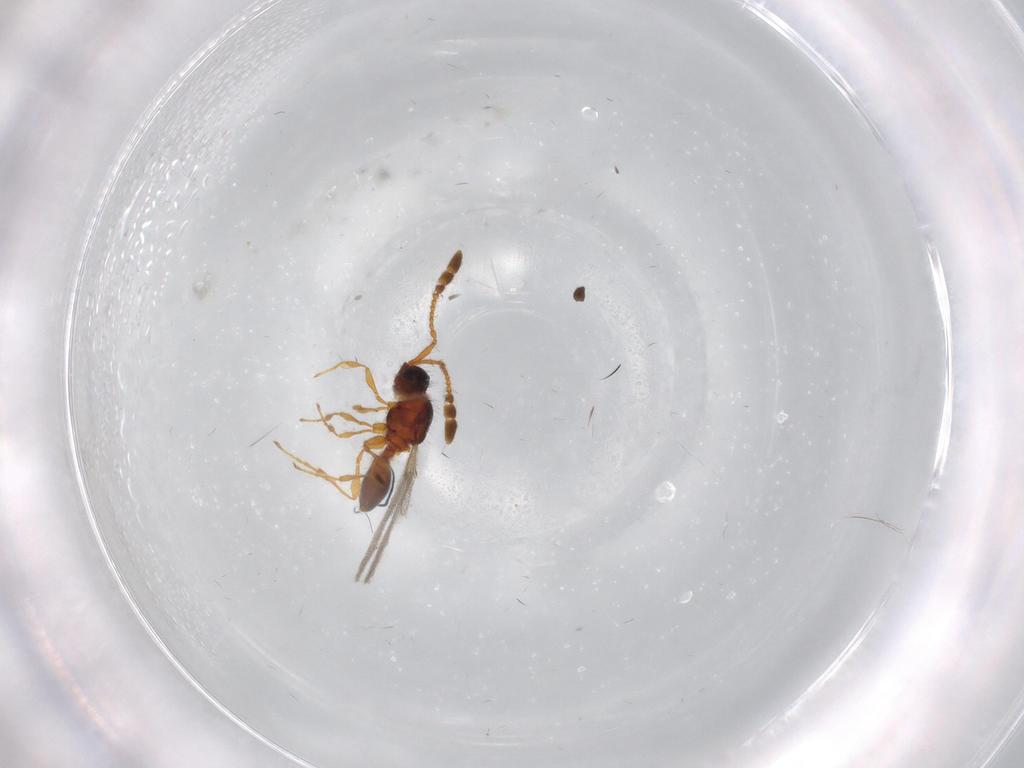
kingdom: Animalia
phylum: Arthropoda
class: Insecta
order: Hymenoptera
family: Diapriidae
